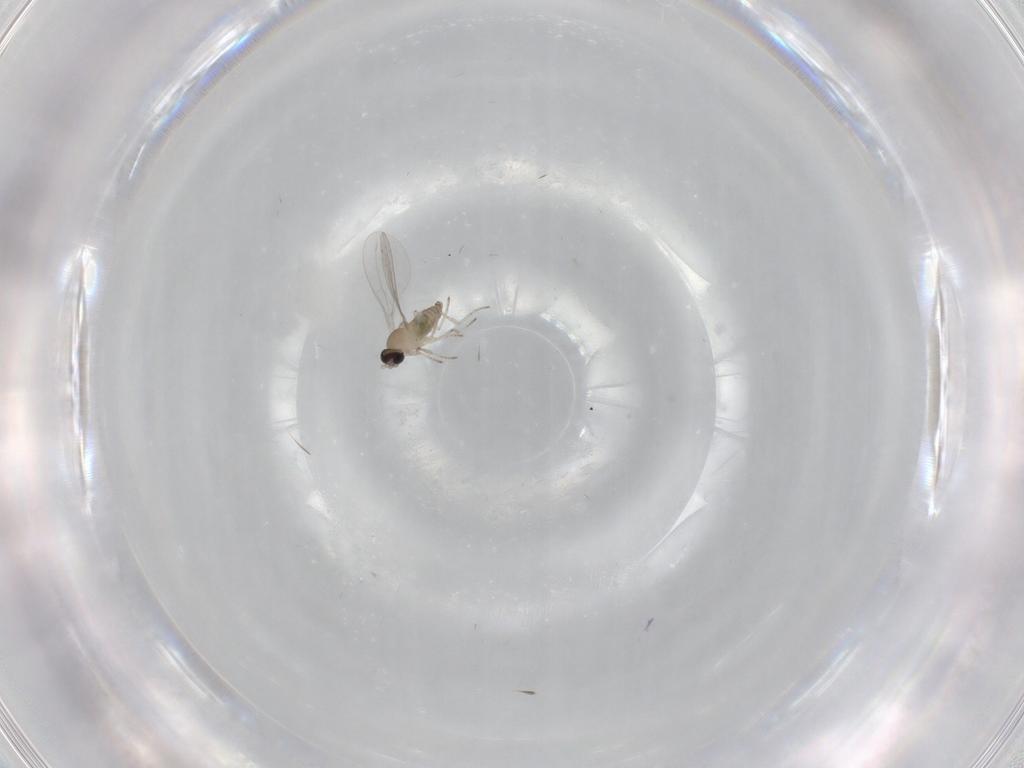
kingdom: Animalia
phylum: Arthropoda
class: Insecta
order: Diptera
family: Cecidomyiidae
